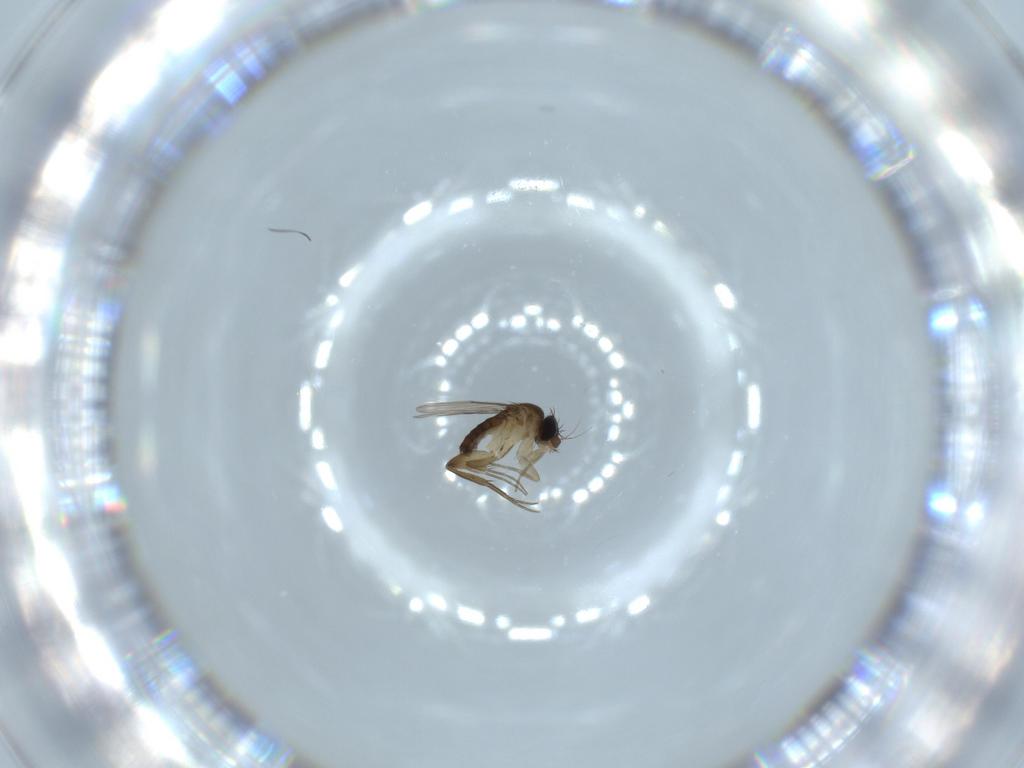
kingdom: Animalia
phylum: Arthropoda
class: Insecta
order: Diptera
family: Phoridae
